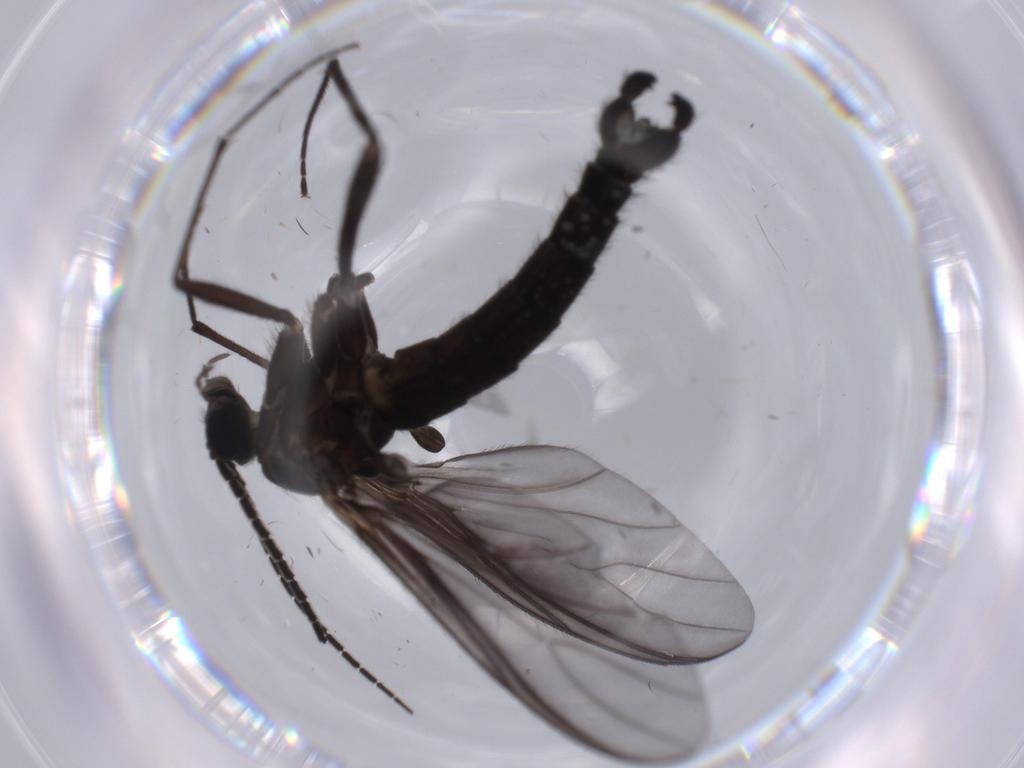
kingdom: Animalia
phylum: Arthropoda
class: Insecta
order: Diptera
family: Cecidomyiidae
